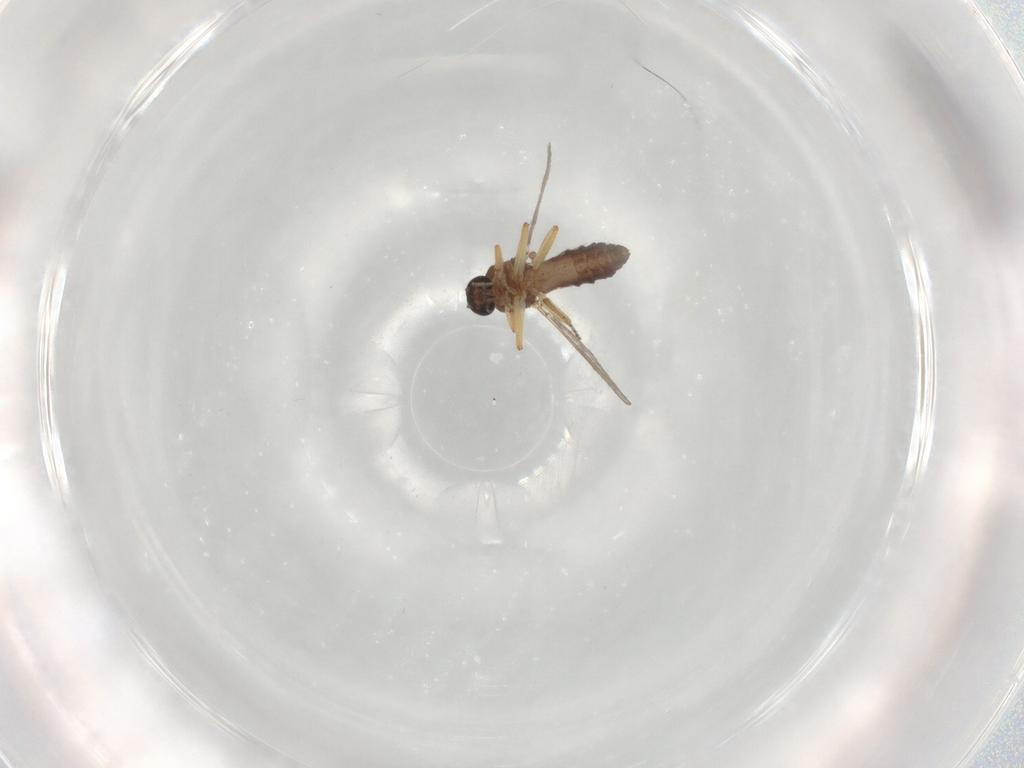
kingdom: Animalia
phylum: Arthropoda
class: Insecta
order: Diptera
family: Ceratopogonidae
